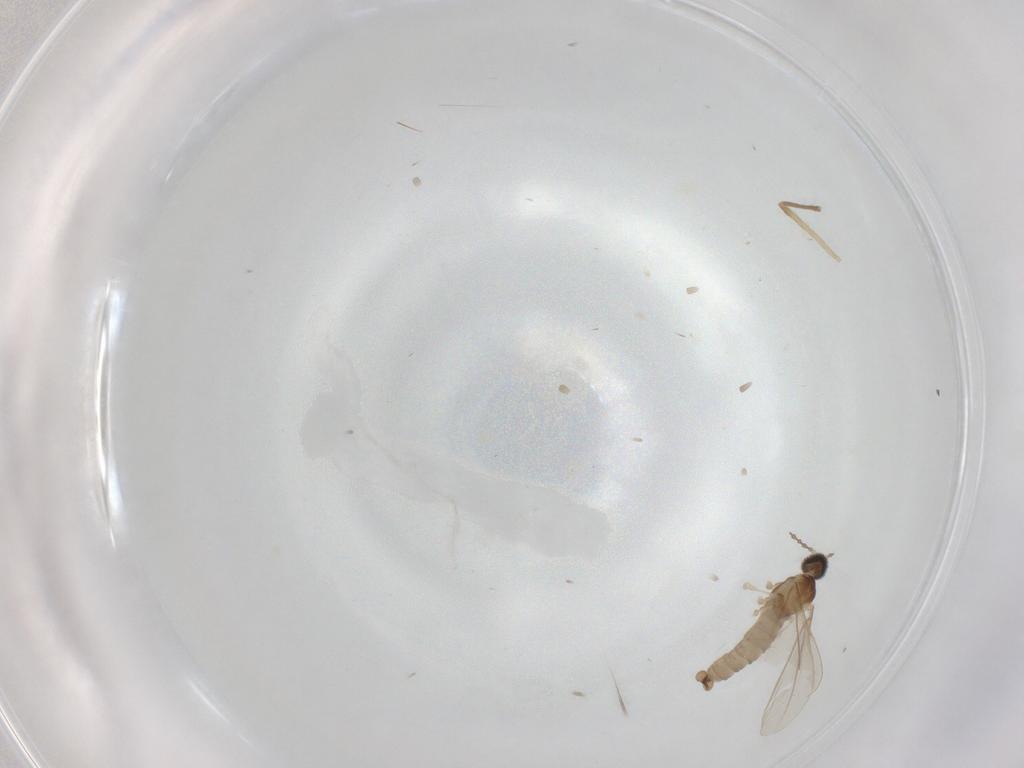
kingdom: Animalia
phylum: Arthropoda
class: Insecta
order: Diptera
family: Cecidomyiidae
